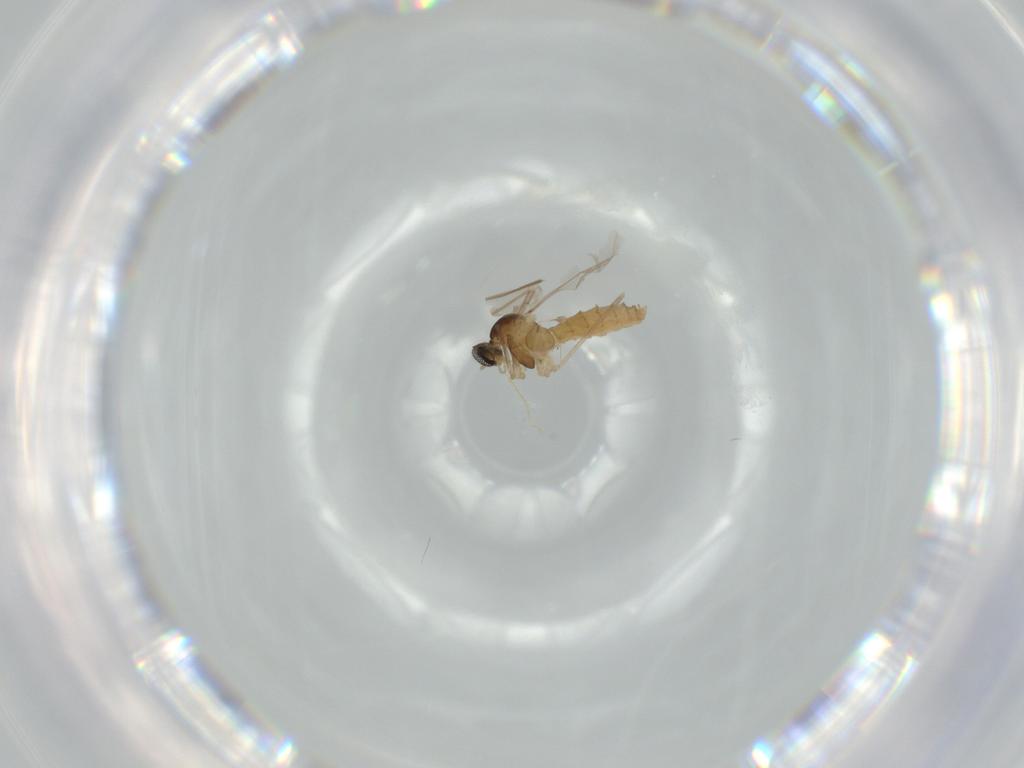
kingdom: Animalia
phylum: Arthropoda
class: Insecta
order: Diptera
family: Cecidomyiidae
